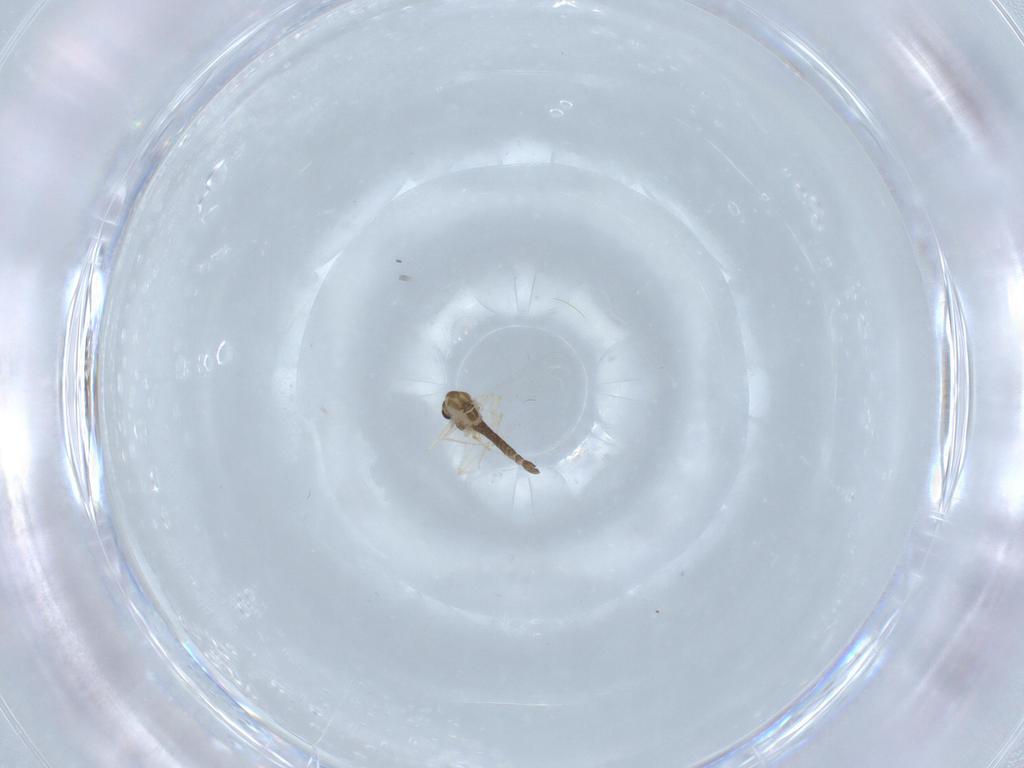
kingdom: Animalia
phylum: Arthropoda
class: Insecta
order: Diptera
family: Chironomidae
